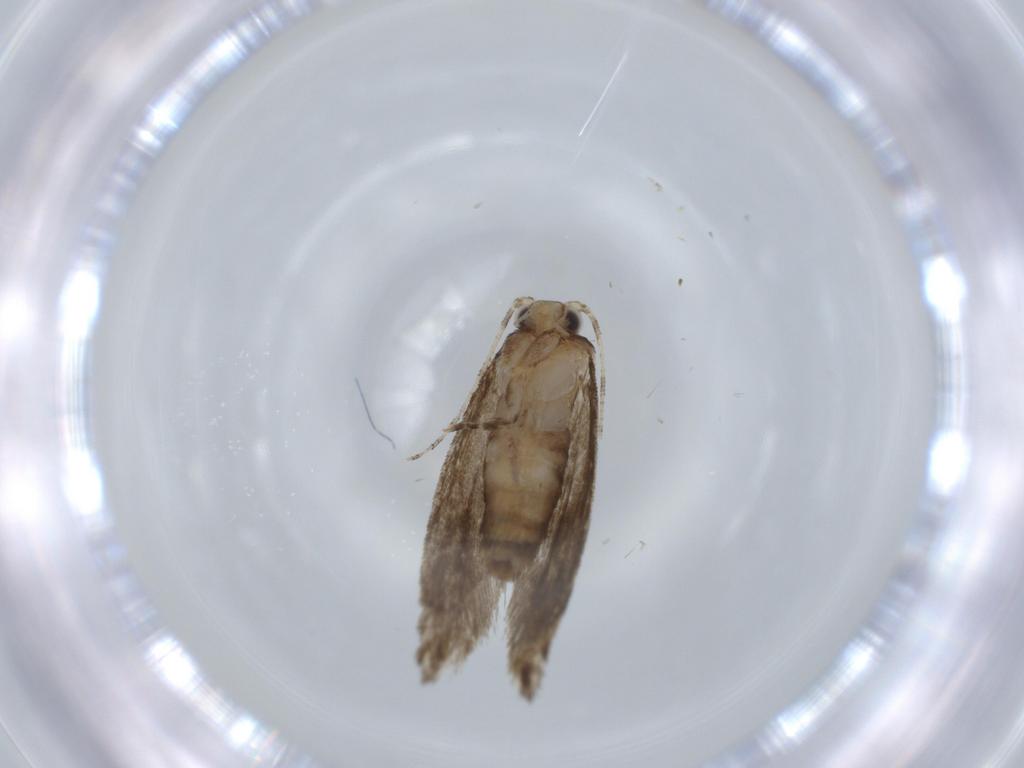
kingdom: Animalia
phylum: Arthropoda
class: Insecta
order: Lepidoptera
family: Tineidae
